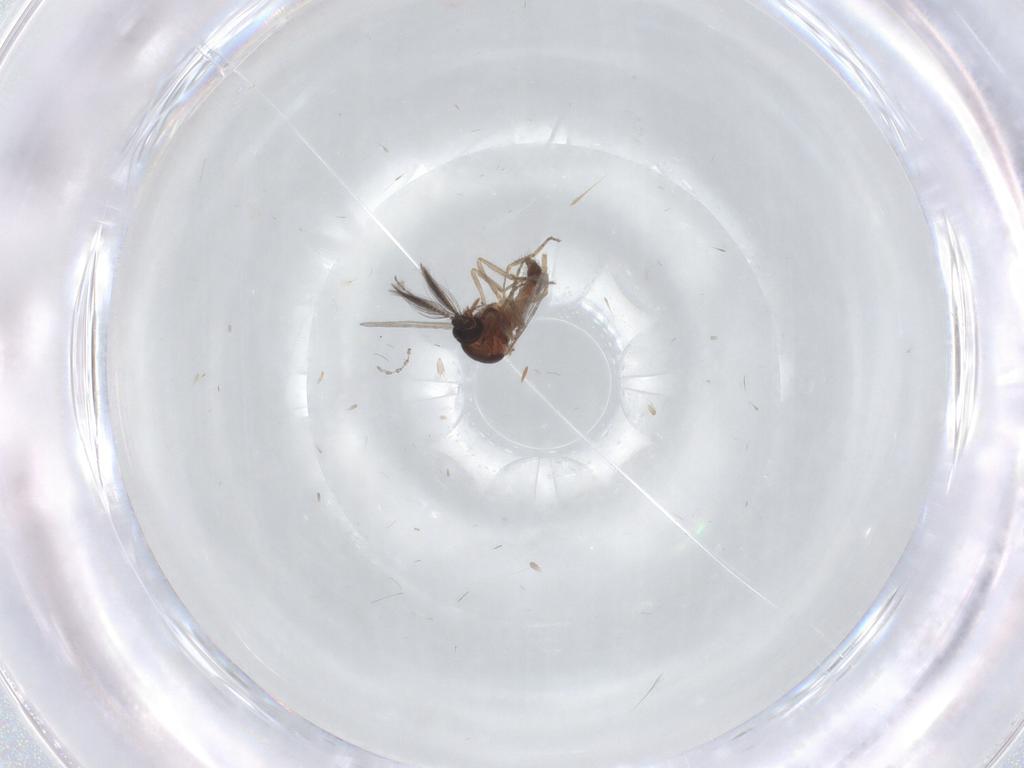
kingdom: Animalia
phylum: Arthropoda
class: Insecta
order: Diptera
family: Ceratopogonidae
